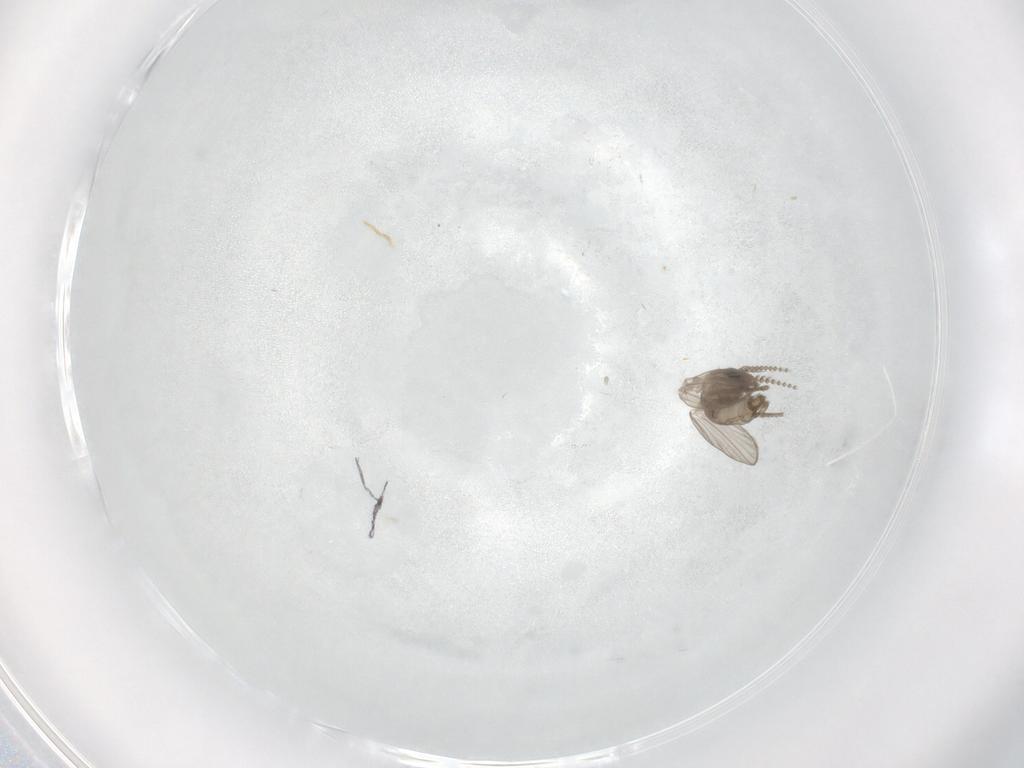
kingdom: Animalia
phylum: Arthropoda
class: Insecta
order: Diptera
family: Psychodidae
